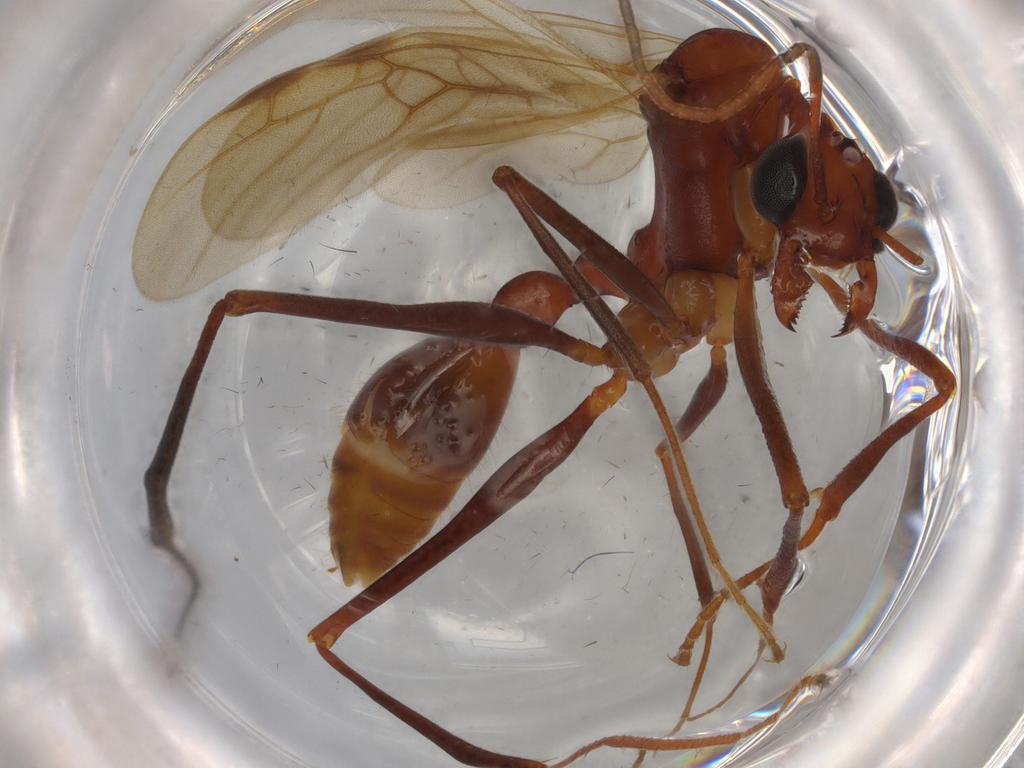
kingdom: Animalia
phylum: Arthropoda
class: Insecta
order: Hymenoptera
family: Formicidae
